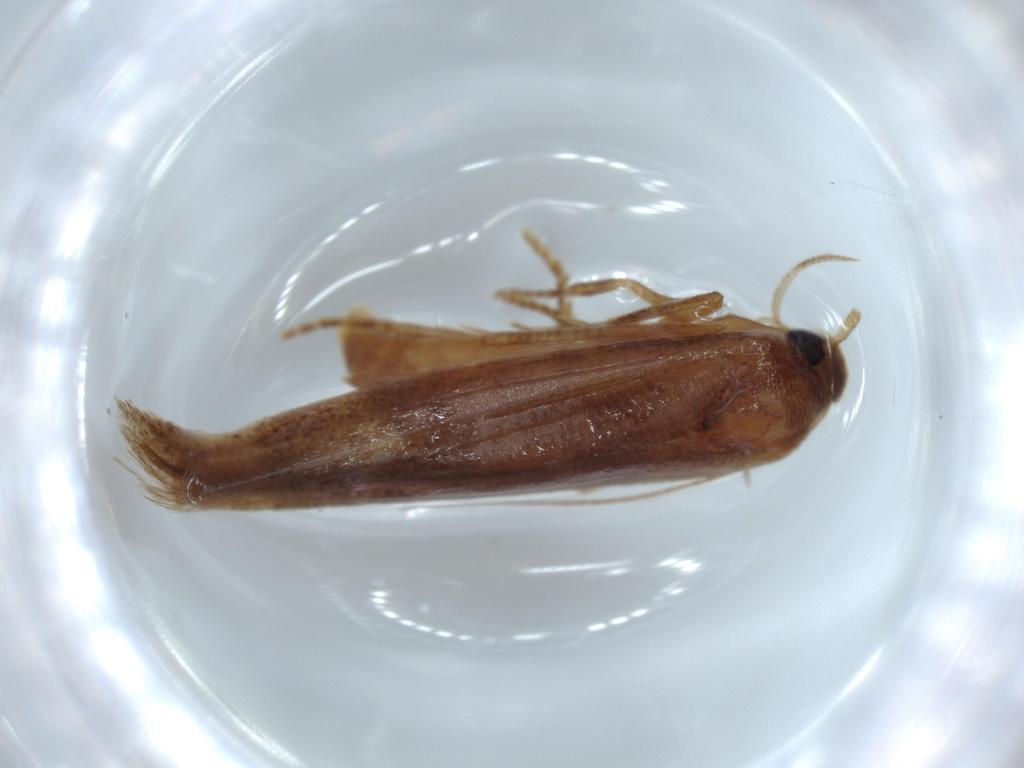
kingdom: Animalia
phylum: Arthropoda
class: Insecta
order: Lepidoptera
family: Stathmopodidae
